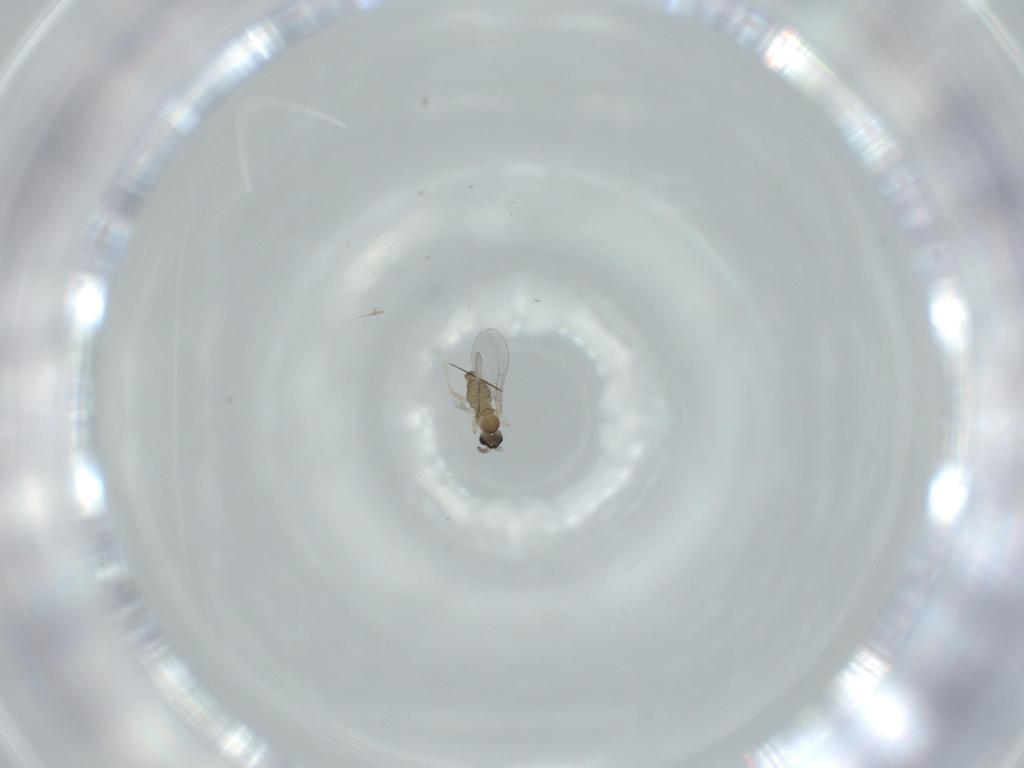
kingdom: Animalia
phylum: Arthropoda
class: Insecta
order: Diptera
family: Cecidomyiidae
